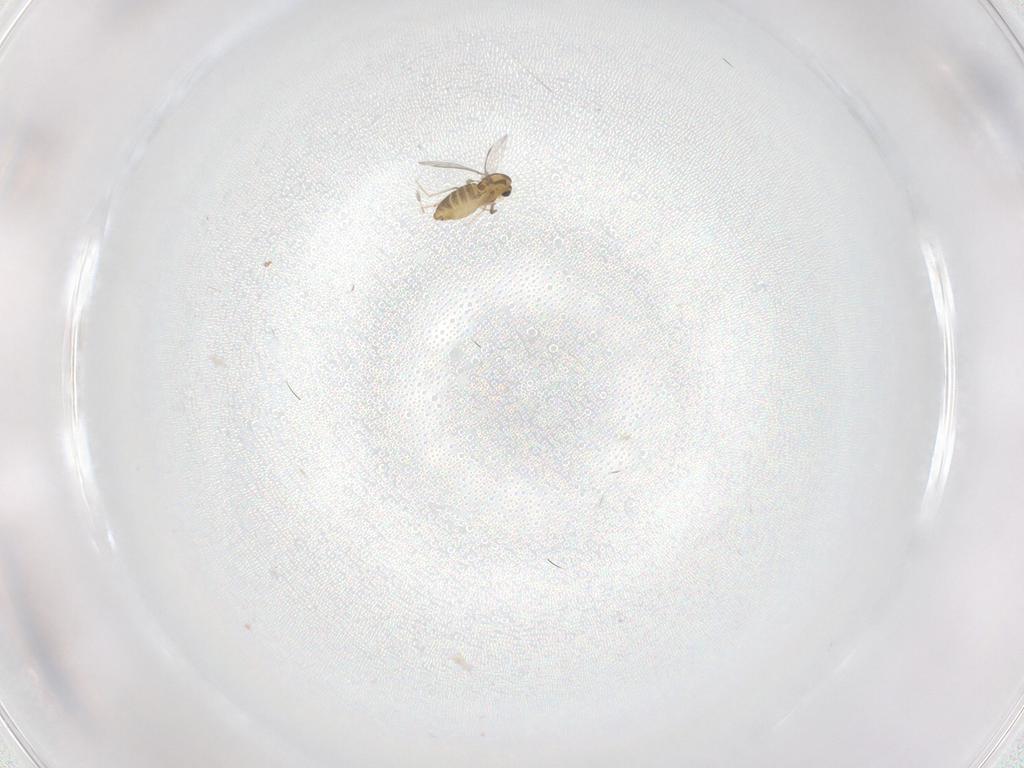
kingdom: Animalia
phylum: Arthropoda
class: Insecta
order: Diptera
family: Chironomidae
